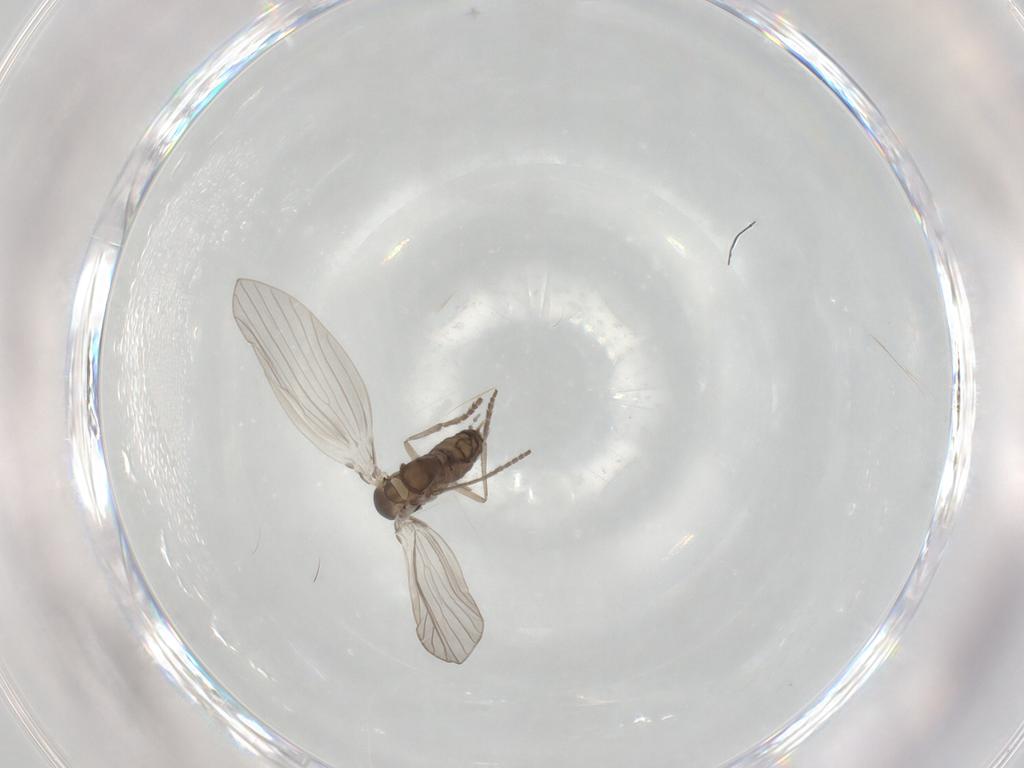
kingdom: Animalia
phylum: Arthropoda
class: Insecta
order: Diptera
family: Psychodidae
